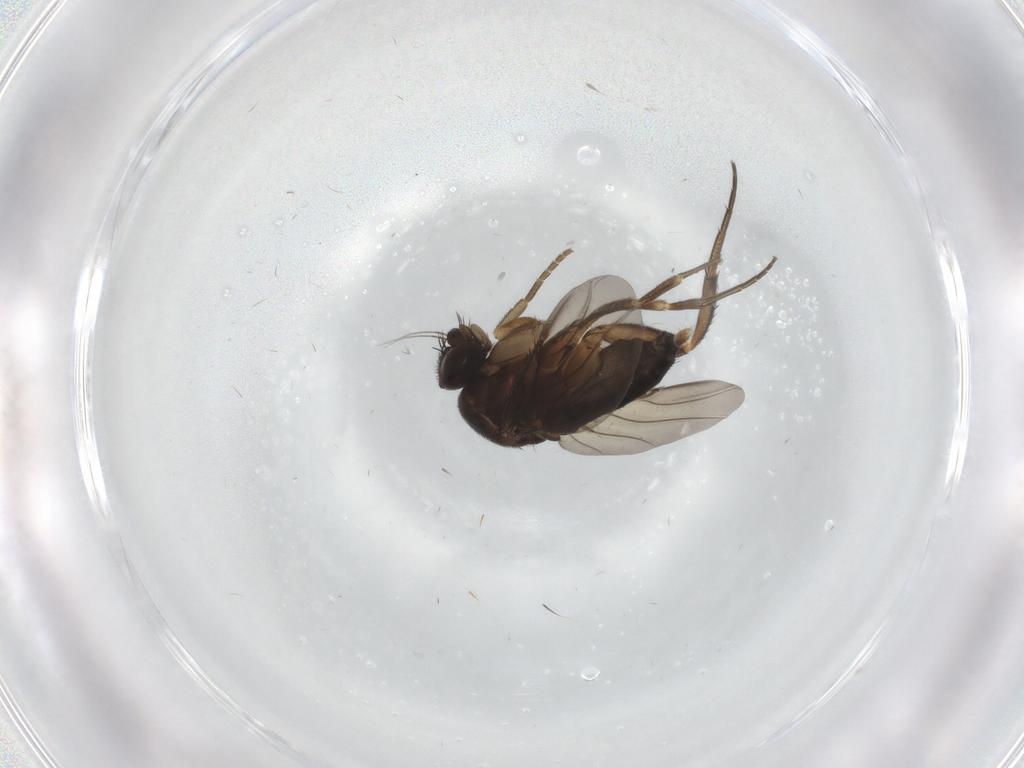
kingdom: Animalia
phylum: Arthropoda
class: Insecta
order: Diptera
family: Phoridae
